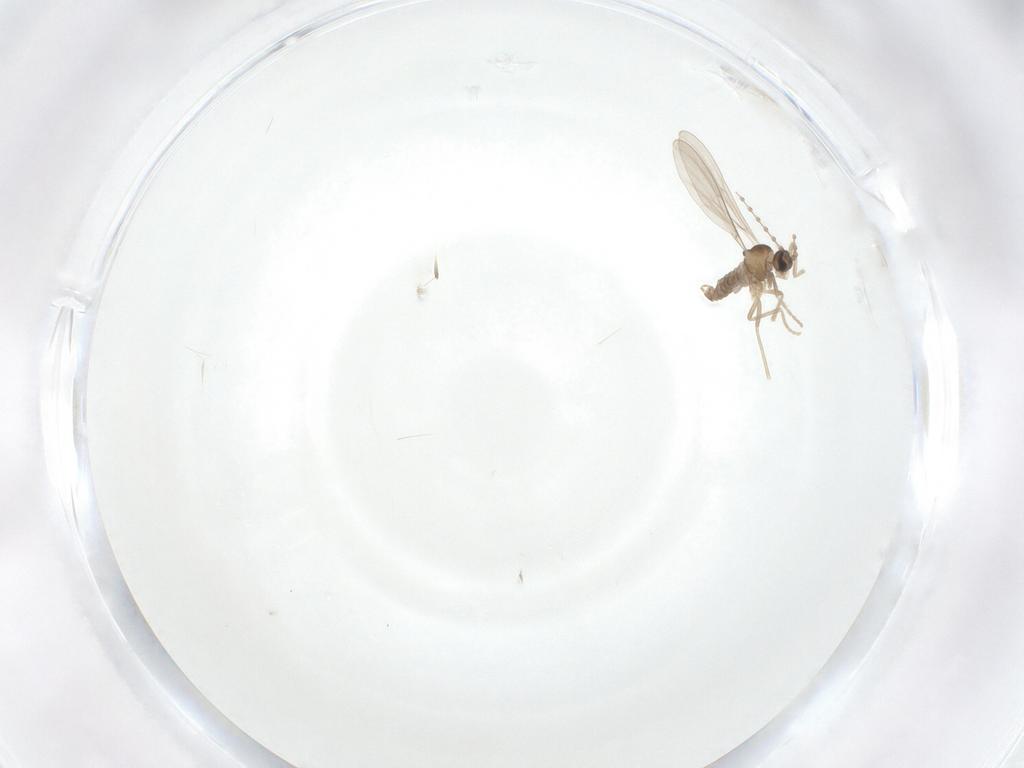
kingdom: Animalia
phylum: Arthropoda
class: Insecta
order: Diptera
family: Cecidomyiidae
